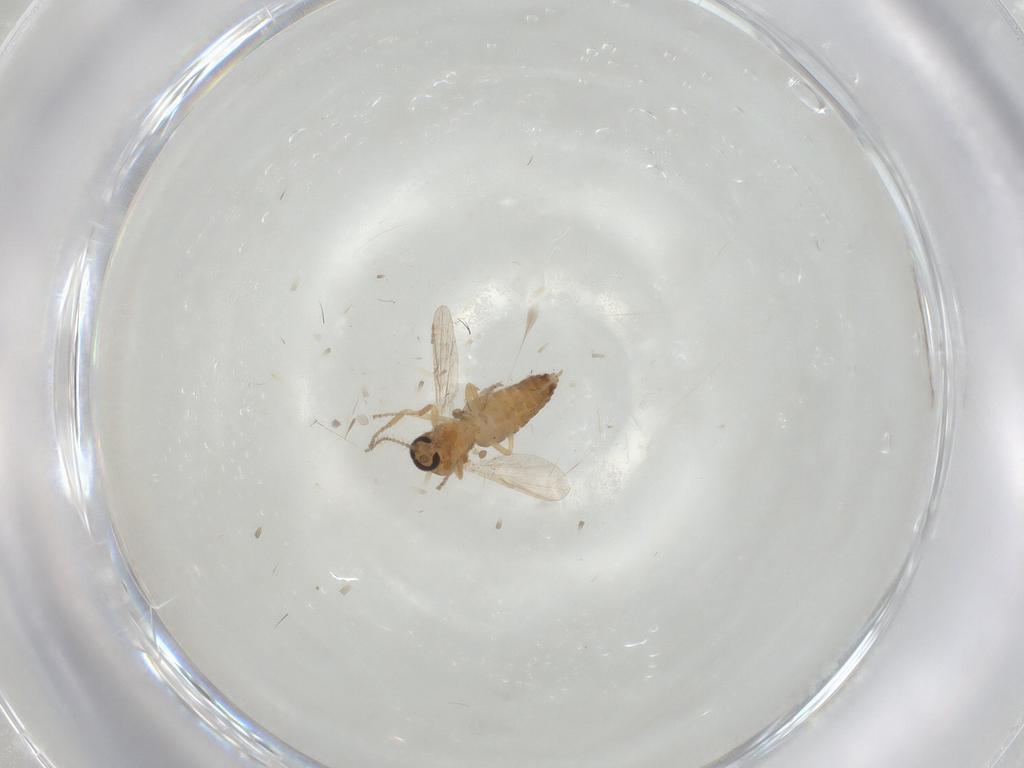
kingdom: Animalia
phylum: Arthropoda
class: Insecta
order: Diptera
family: Ceratopogonidae
